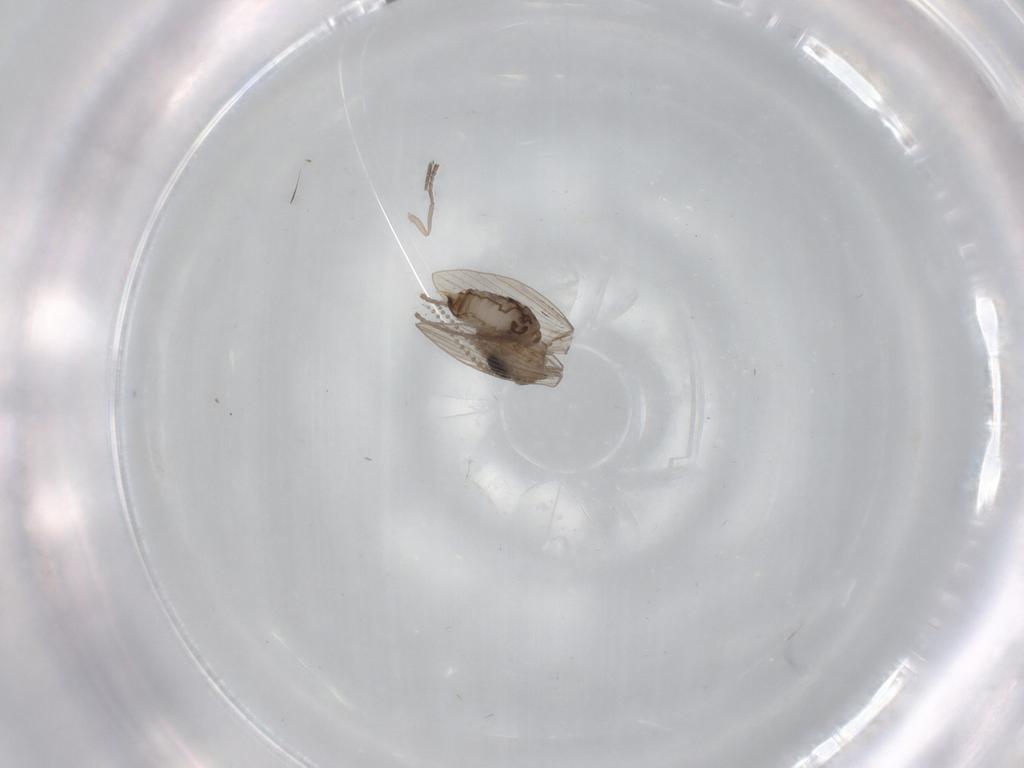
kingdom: Animalia
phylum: Arthropoda
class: Insecta
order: Diptera
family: Psychodidae
